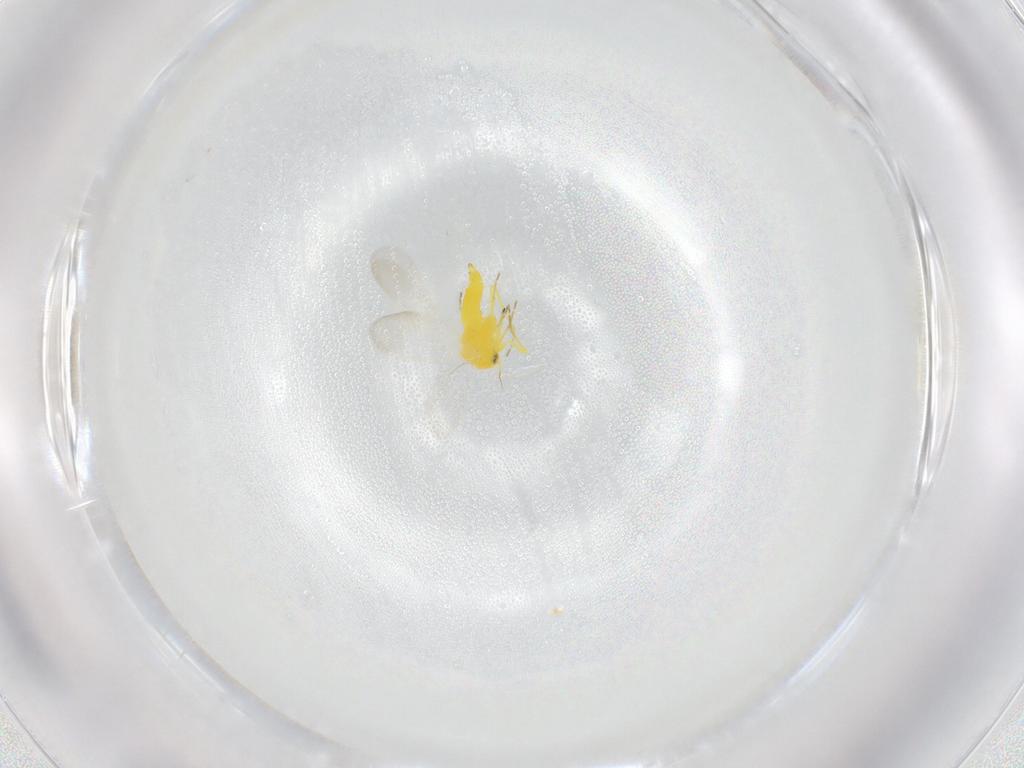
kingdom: Animalia
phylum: Arthropoda
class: Insecta
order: Hemiptera
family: Aleyrodidae
